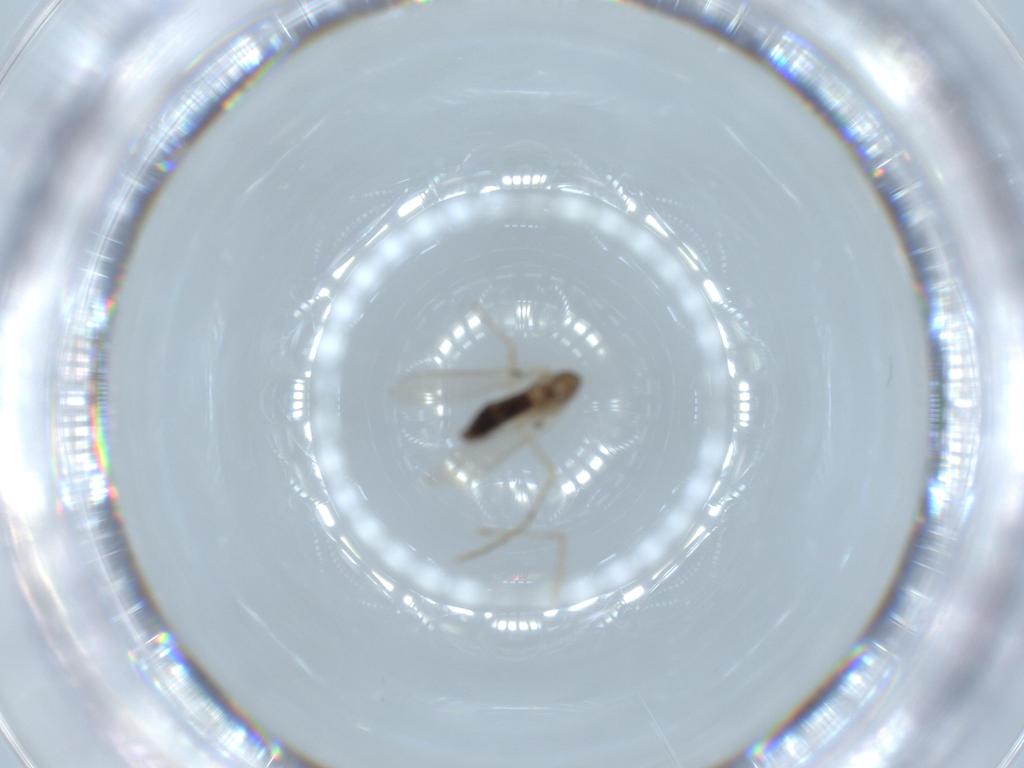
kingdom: Animalia
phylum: Arthropoda
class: Insecta
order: Diptera
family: Psychodidae
